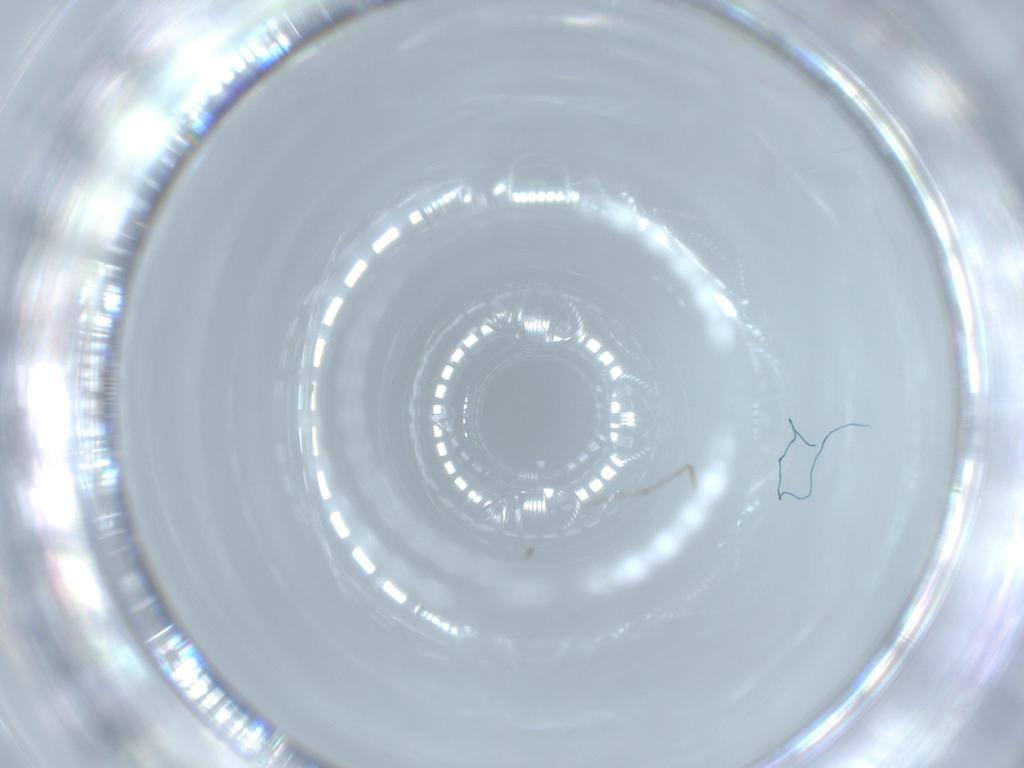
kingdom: Animalia
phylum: Arthropoda
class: Insecta
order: Diptera
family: Chironomidae
